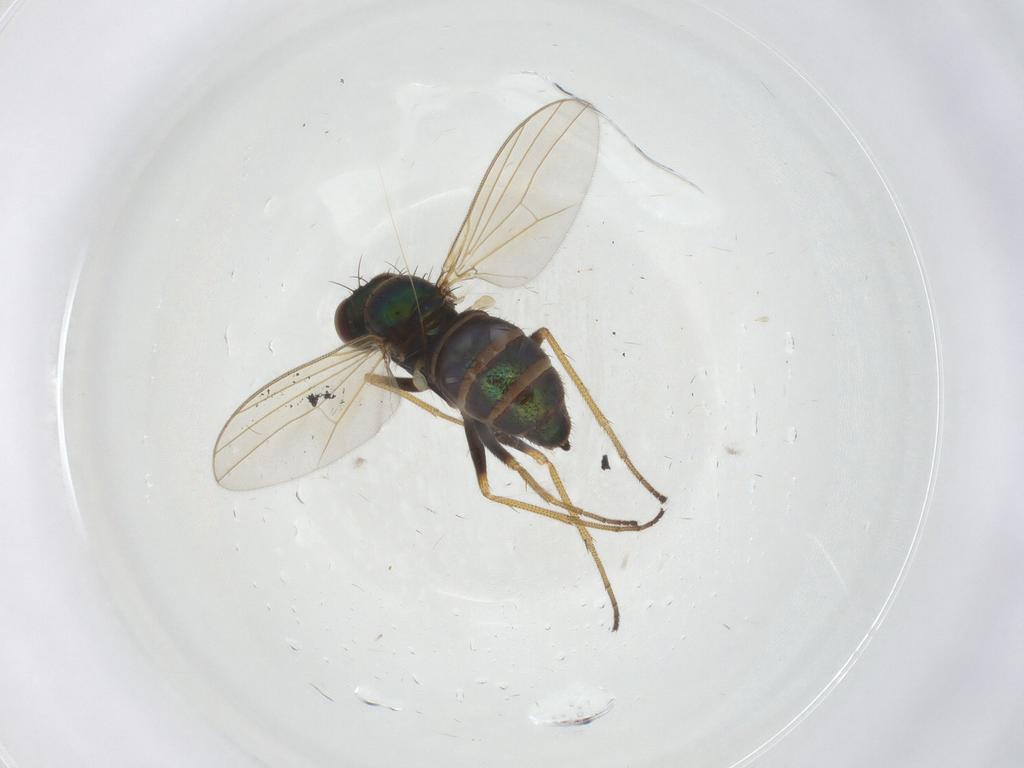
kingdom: Animalia
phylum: Arthropoda
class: Insecta
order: Diptera
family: Dolichopodidae
